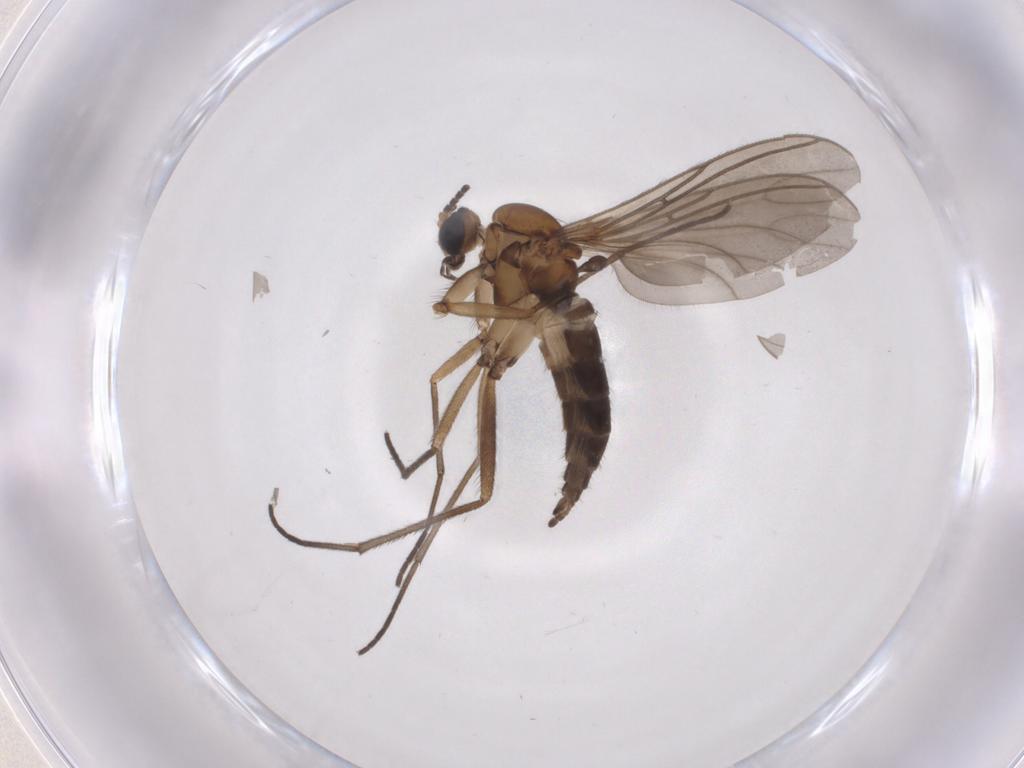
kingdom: Animalia
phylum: Arthropoda
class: Insecta
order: Diptera
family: Sciaridae
